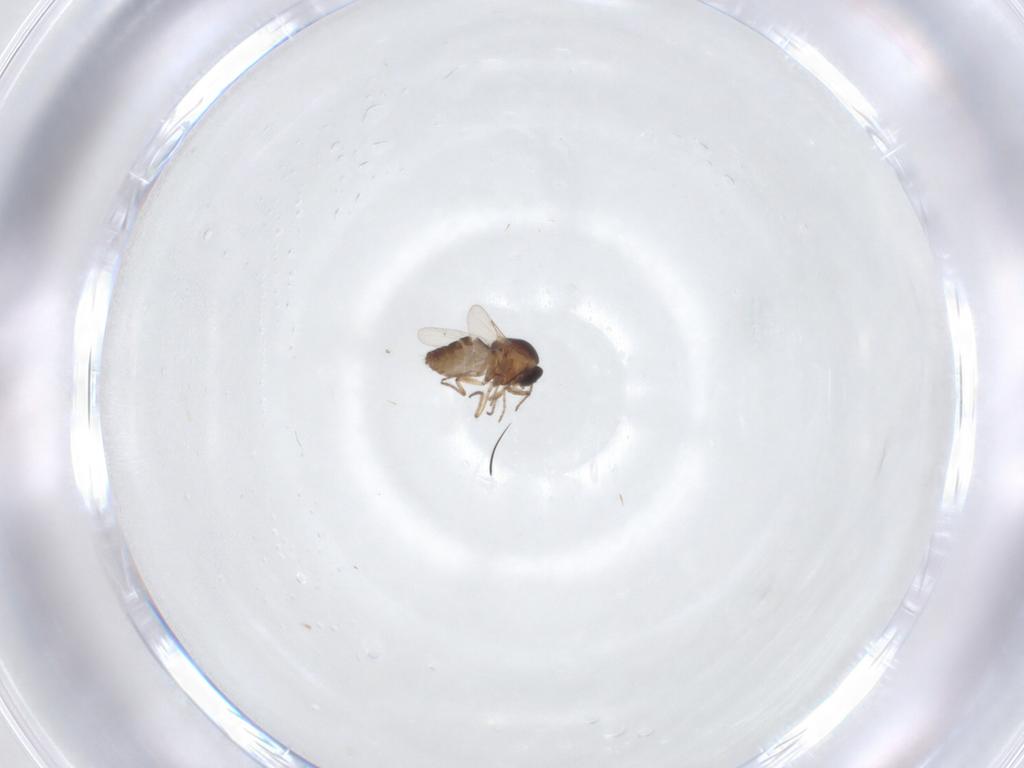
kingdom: Animalia
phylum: Arthropoda
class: Insecta
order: Diptera
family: Ceratopogonidae
